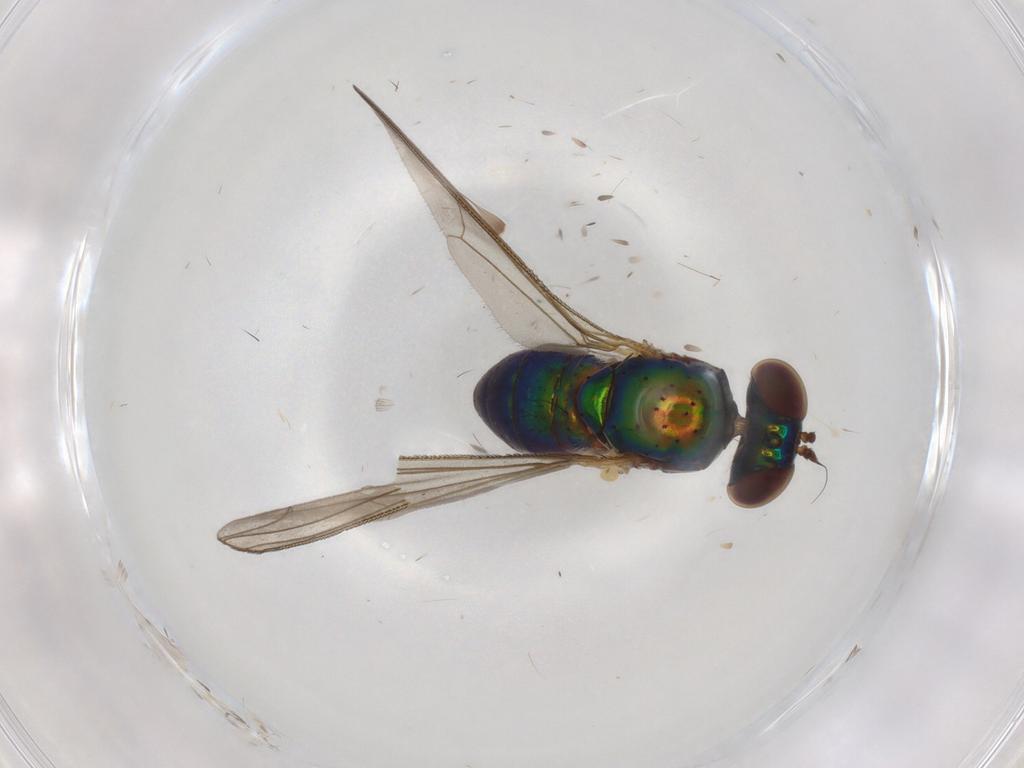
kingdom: Animalia
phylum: Arthropoda
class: Insecta
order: Diptera
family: Dolichopodidae
